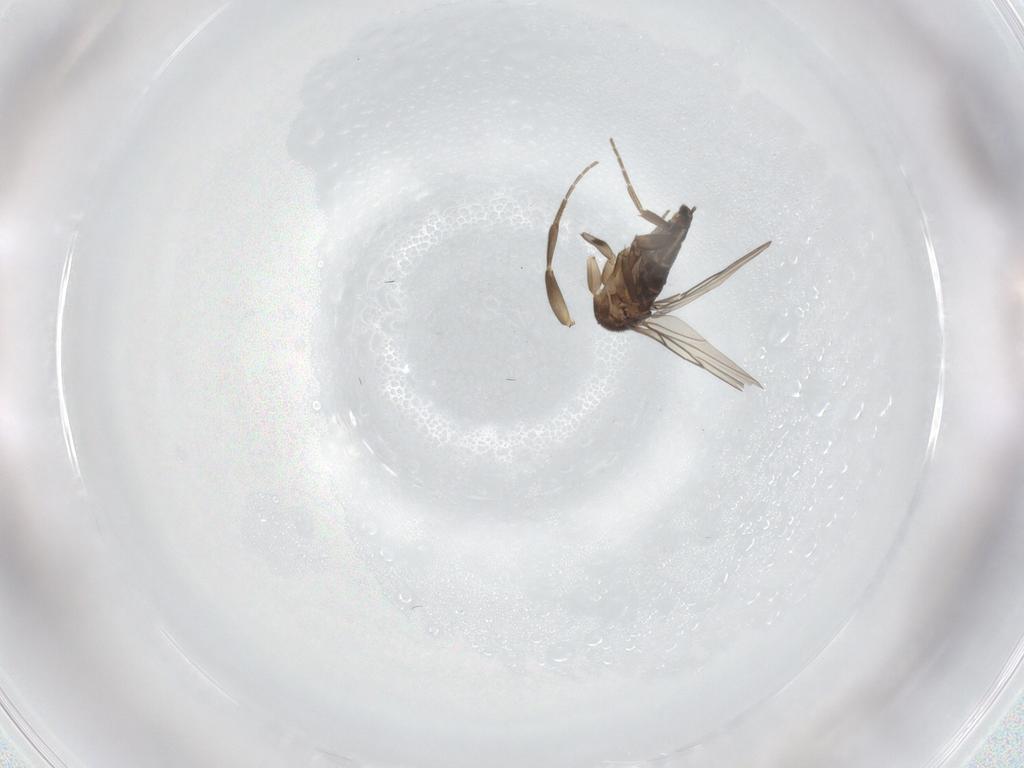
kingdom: Animalia
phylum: Arthropoda
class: Insecta
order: Diptera
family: Phoridae
